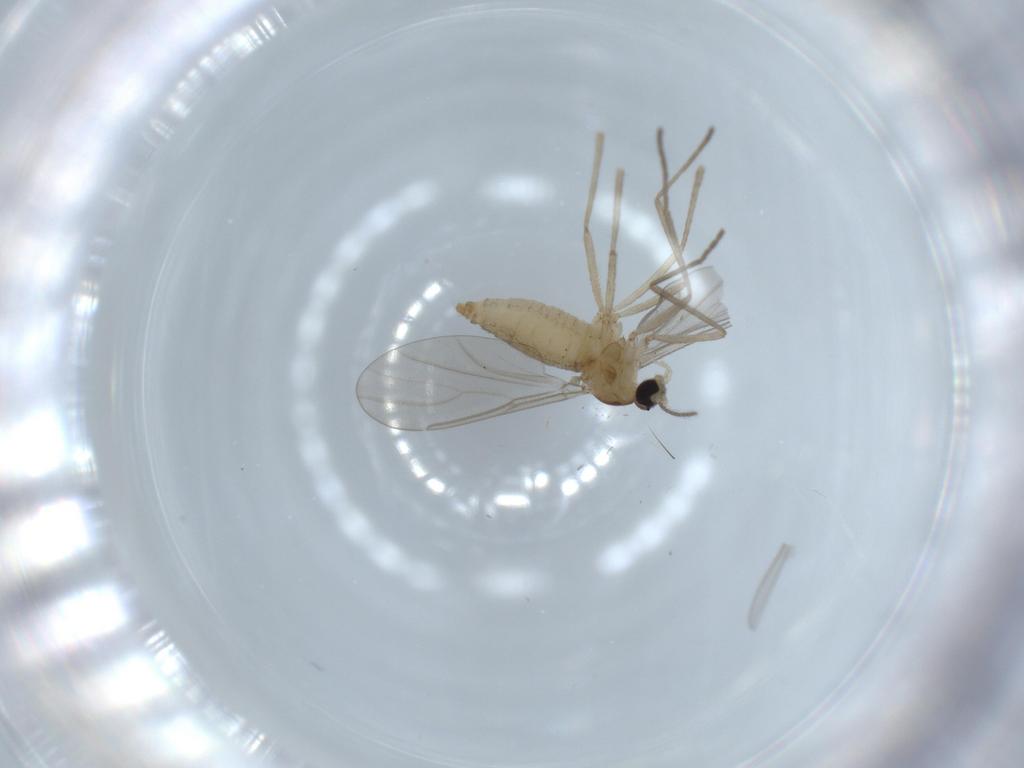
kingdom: Animalia
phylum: Arthropoda
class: Insecta
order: Diptera
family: Cecidomyiidae
